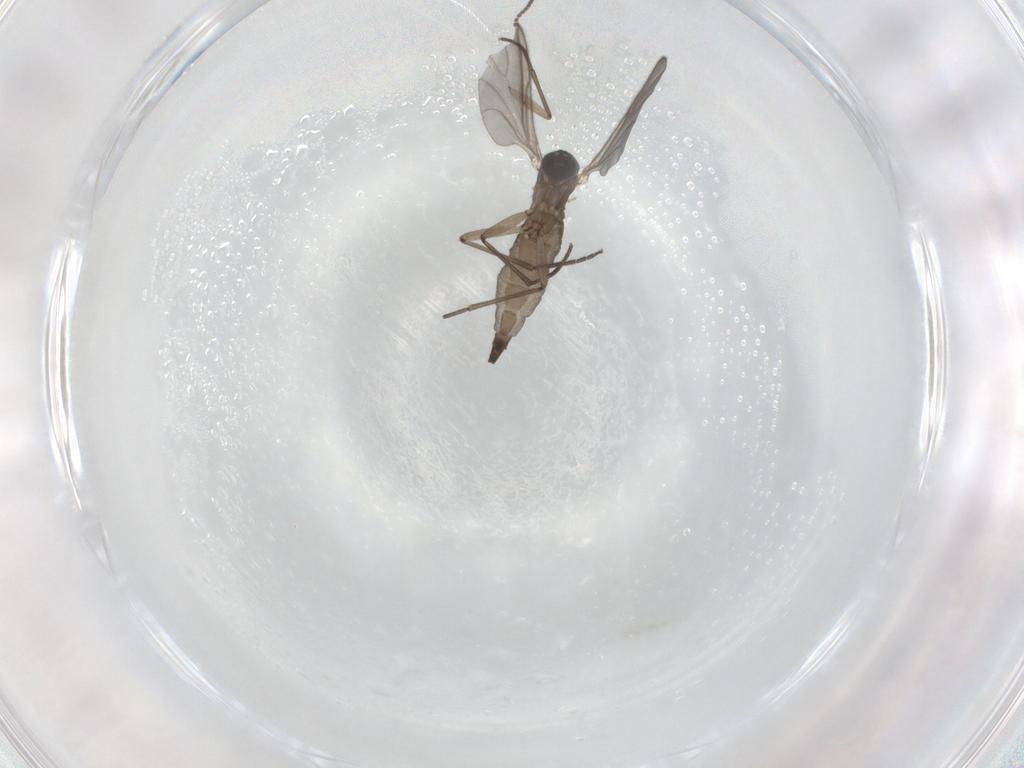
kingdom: Animalia
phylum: Arthropoda
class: Insecta
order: Diptera
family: Sciaridae
